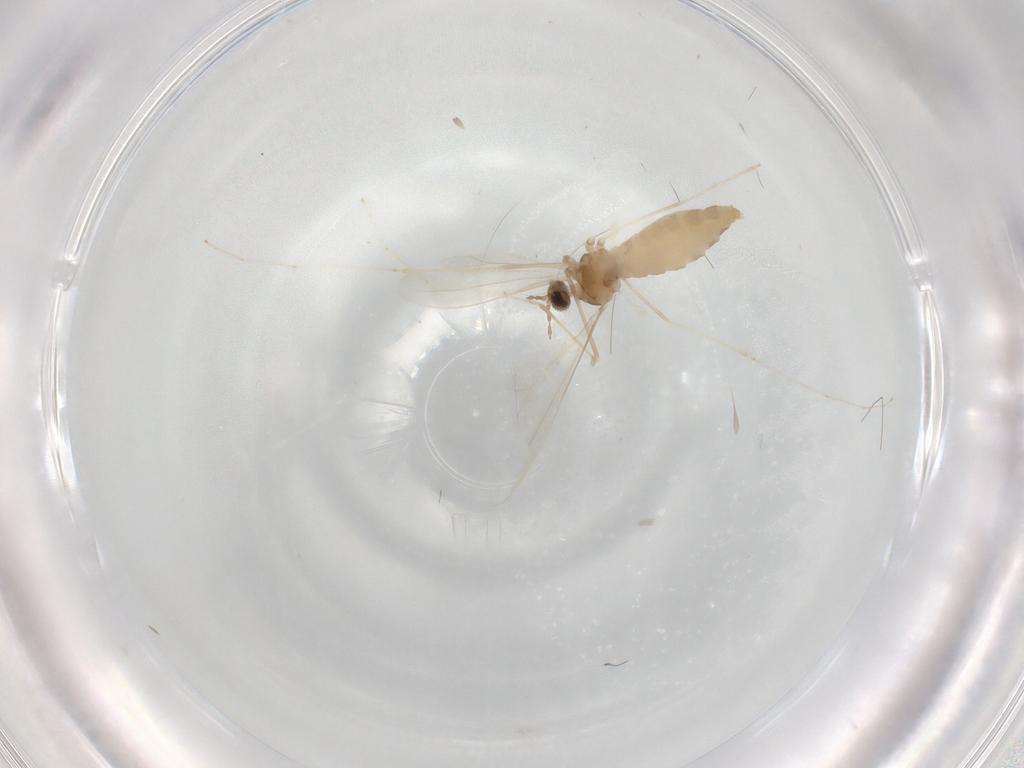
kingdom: Animalia
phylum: Arthropoda
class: Insecta
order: Diptera
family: Cecidomyiidae
